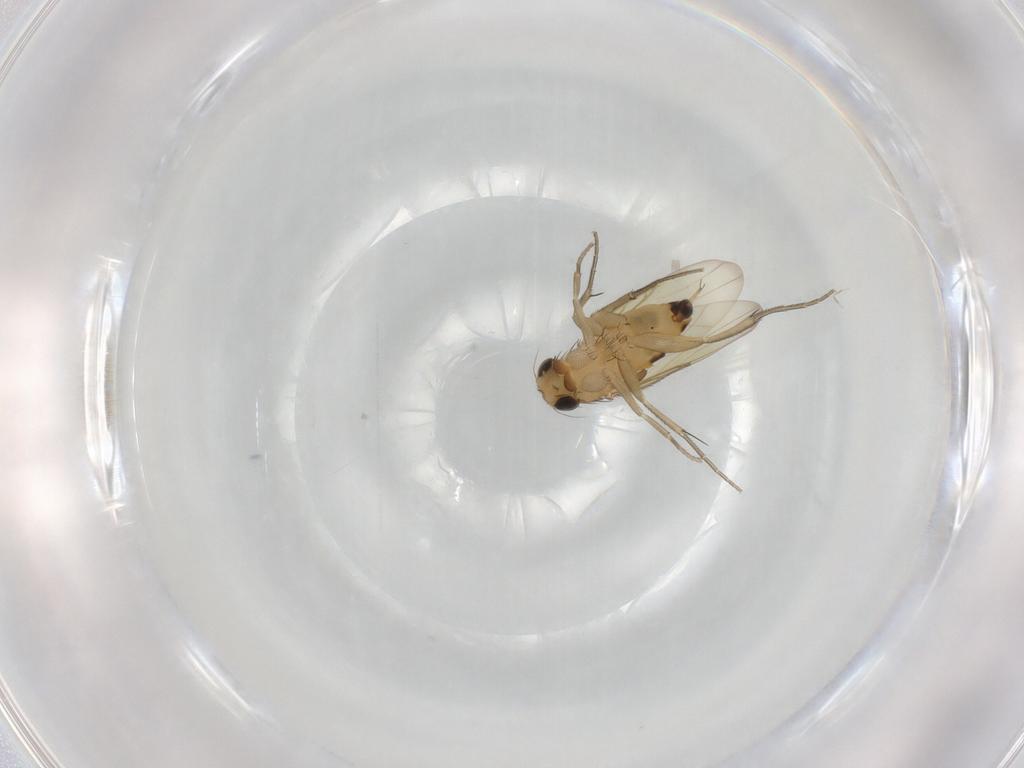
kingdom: Animalia
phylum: Arthropoda
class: Insecta
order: Diptera
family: Phoridae
